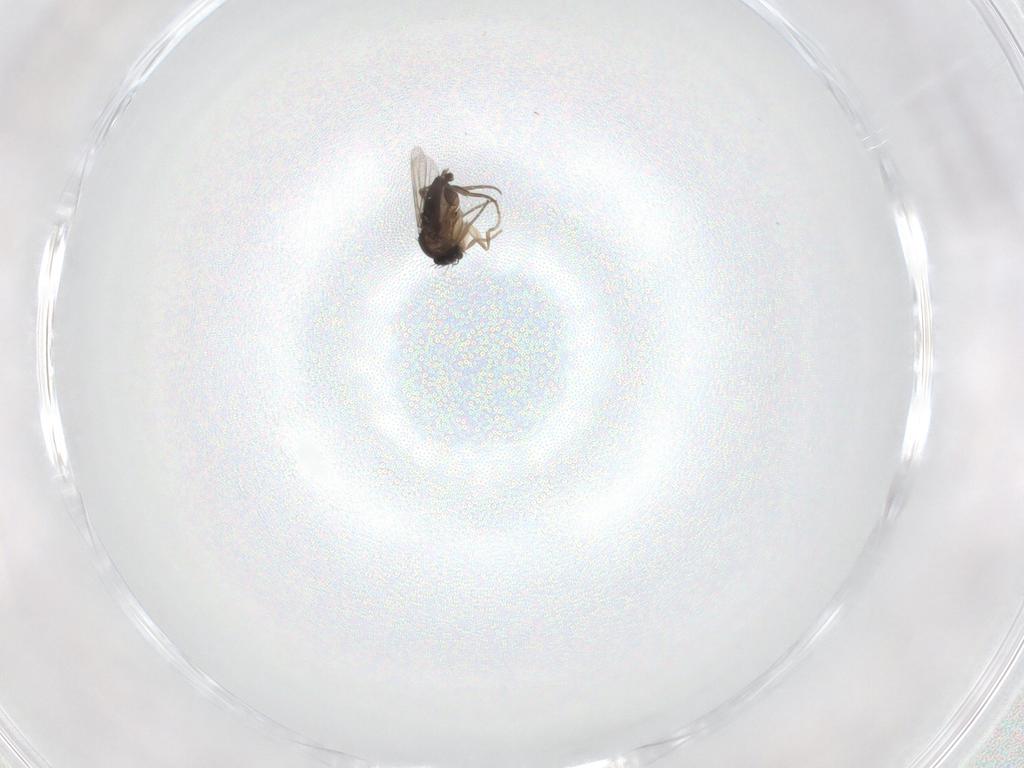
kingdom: Animalia
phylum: Arthropoda
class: Insecta
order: Diptera
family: Phoridae
